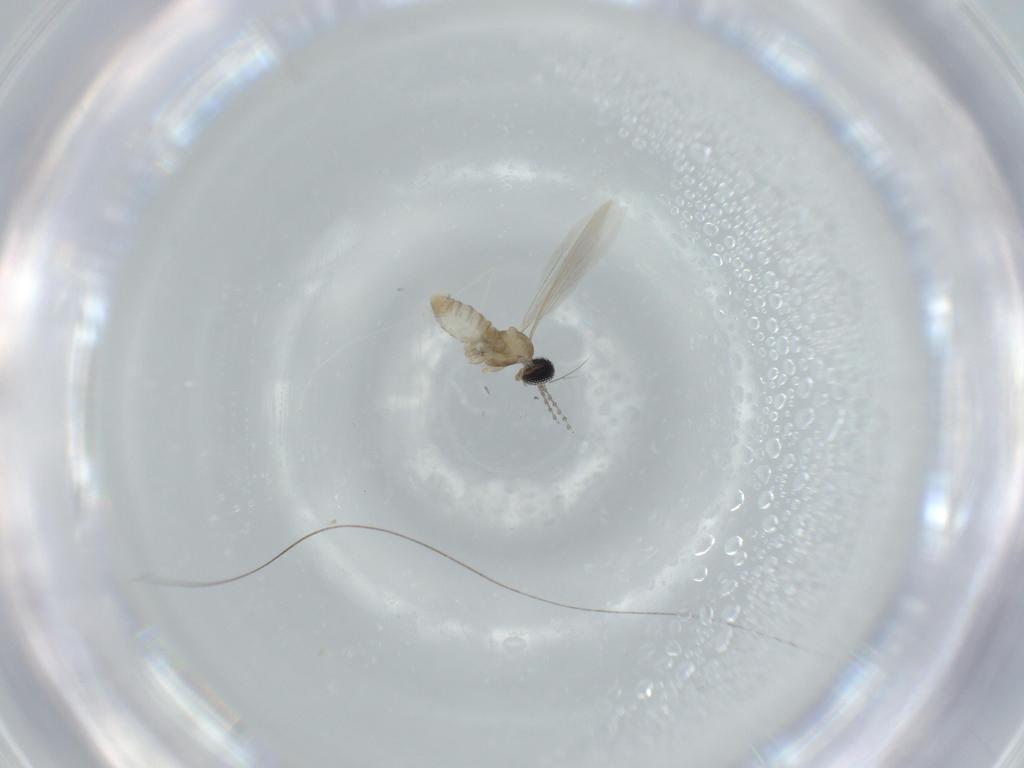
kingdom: Animalia
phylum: Arthropoda
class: Insecta
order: Diptera
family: Cecidomyiidae
